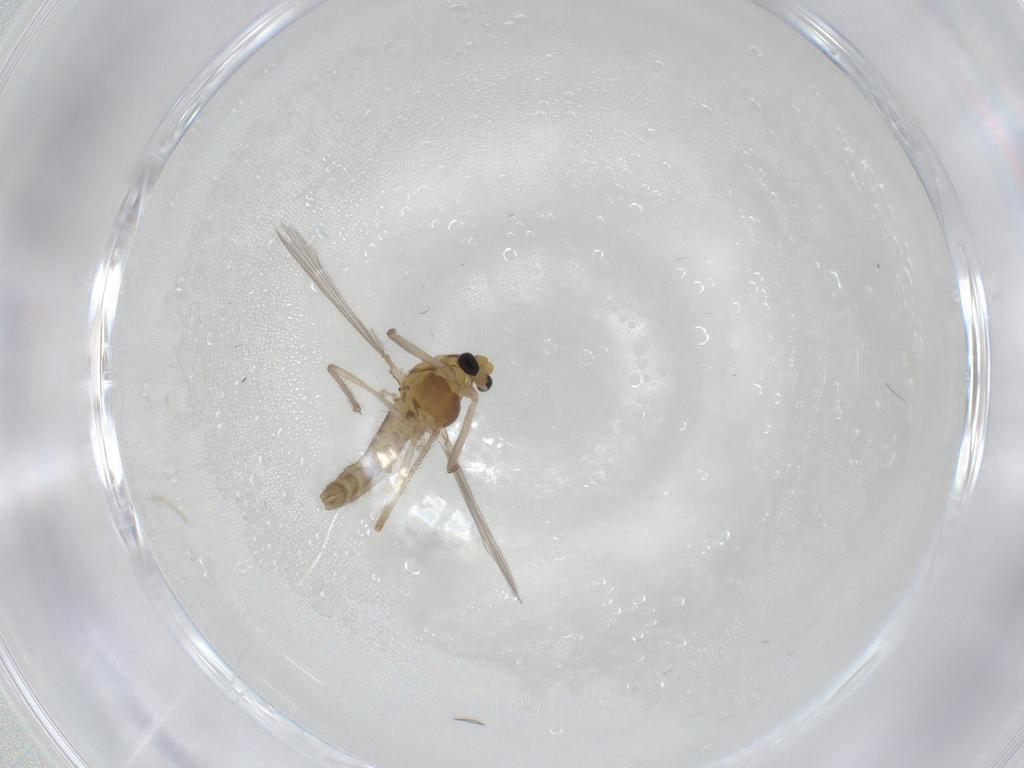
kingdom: Animalia
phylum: Arthropoda
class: Insecta
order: Diptera
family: Chironomidae
